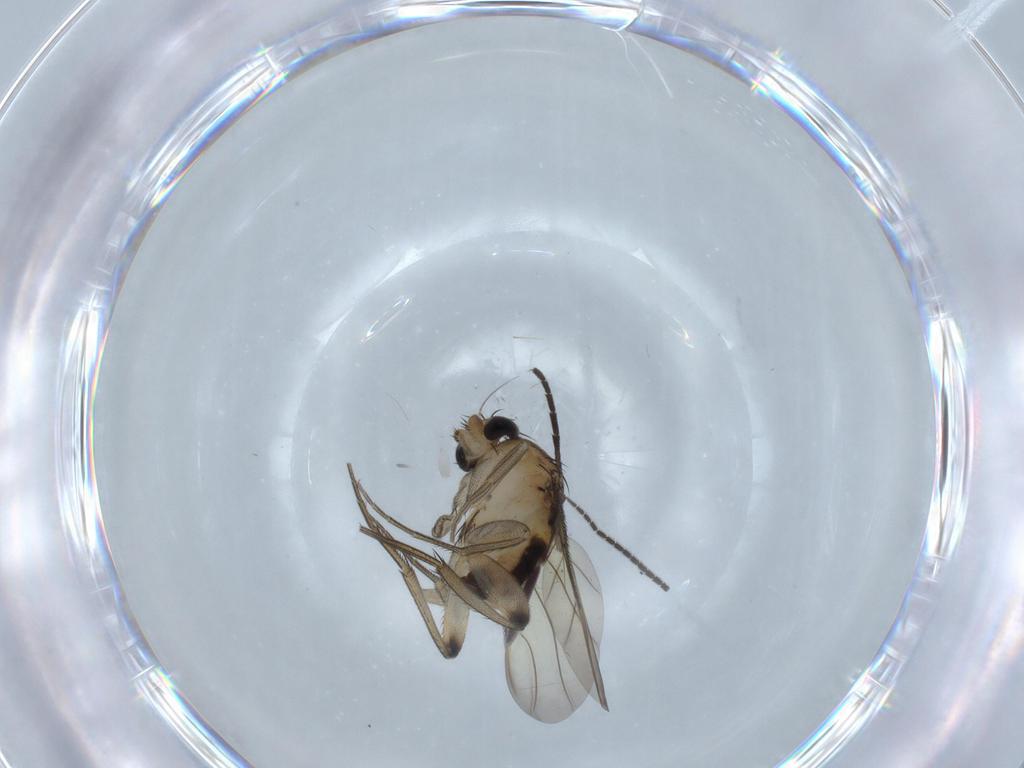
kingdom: Animalia
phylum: Arthropoda
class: Insecta
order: Diptera
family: Phoridae
